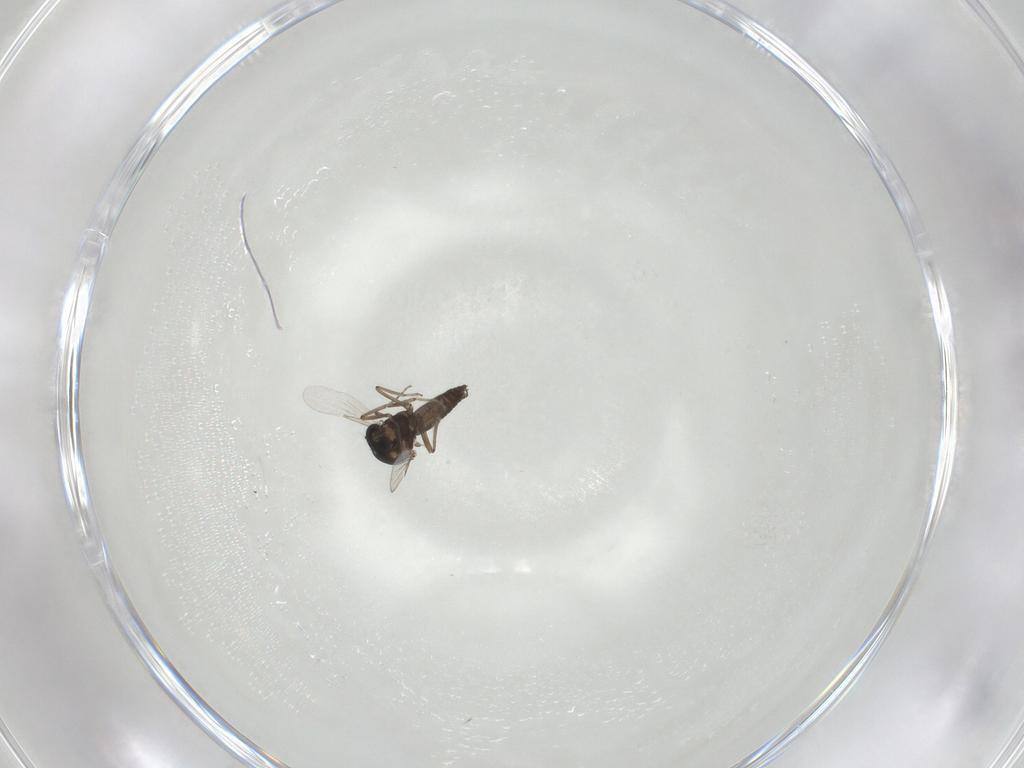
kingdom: Animalia
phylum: Arthropoda
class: Insecta
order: Diptera
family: Ceratopogonidae
